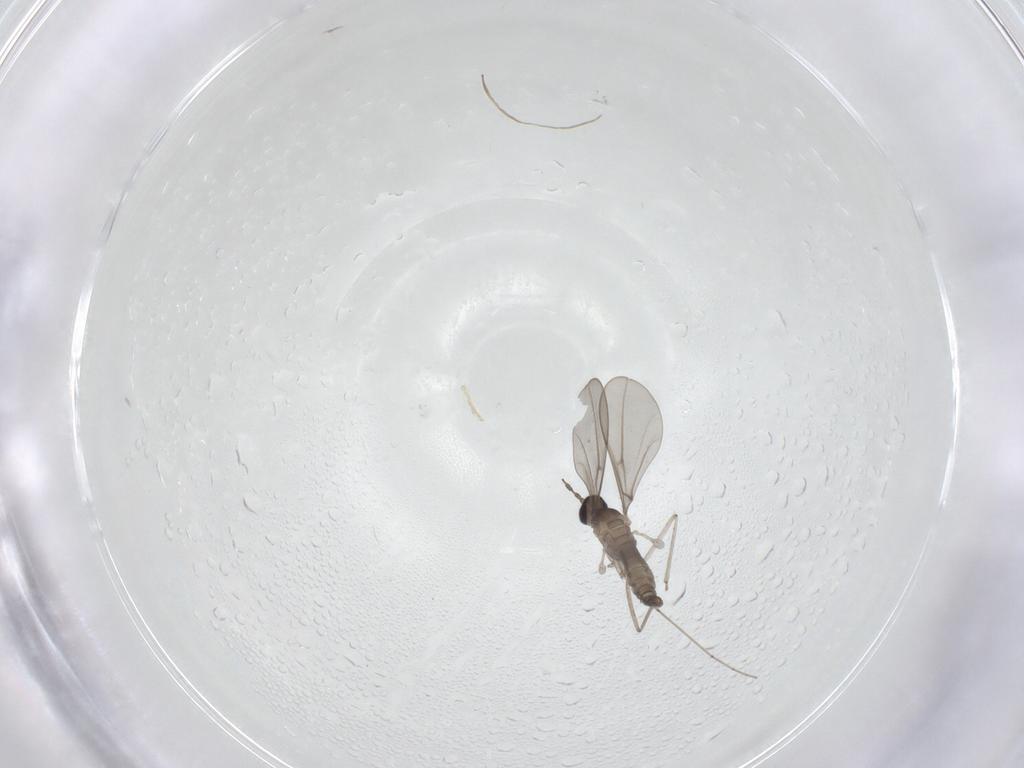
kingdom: Animalia
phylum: Arthropoda
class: Insecta
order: Diptera
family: Cecidomyiidae
